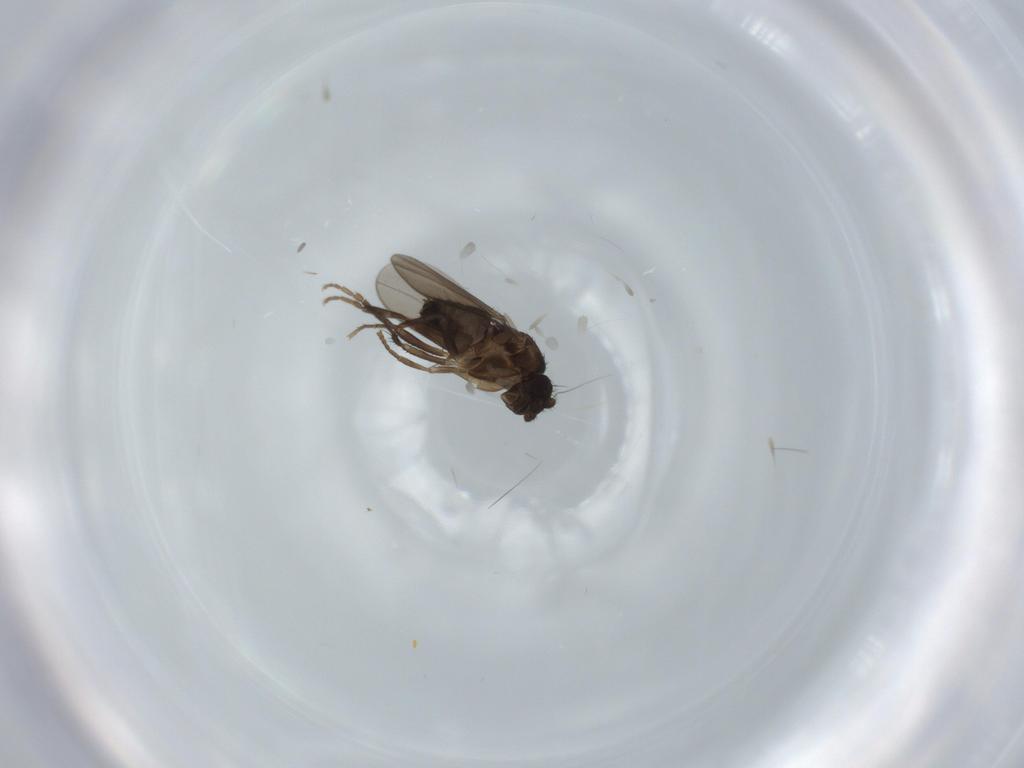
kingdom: Animalia
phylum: Arthropoda
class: Insecta
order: Diptera
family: Sphaeroceridae
